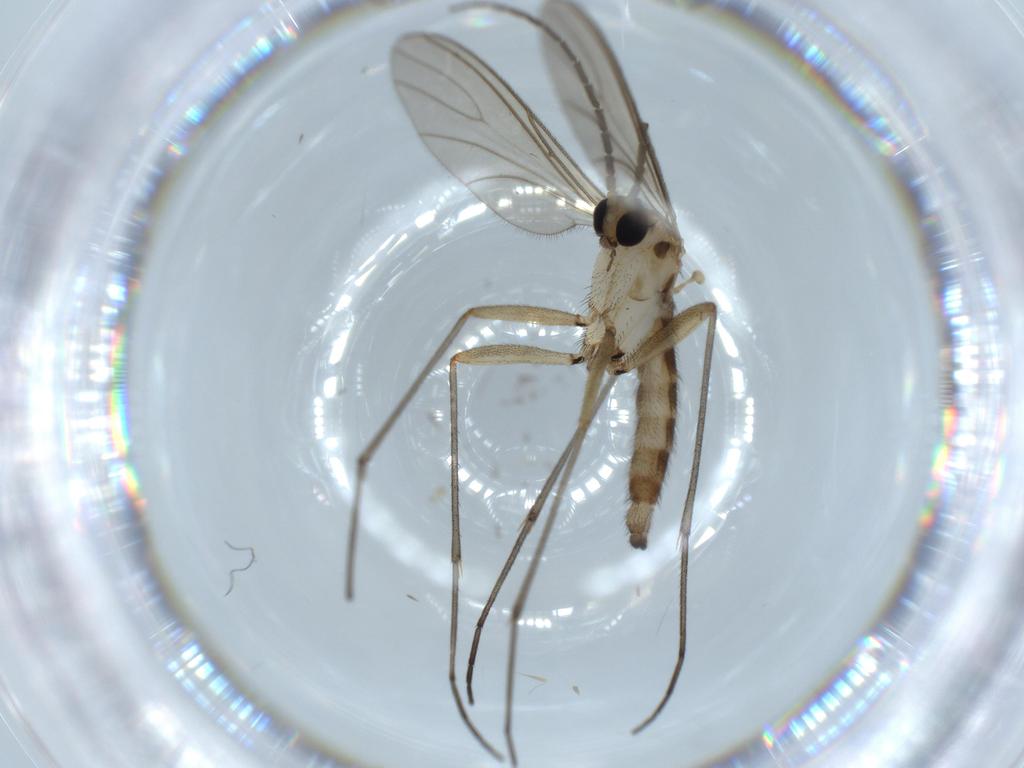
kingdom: Animalia
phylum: Arthropoda
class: Insecta
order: Diptera
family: Sciaridae
